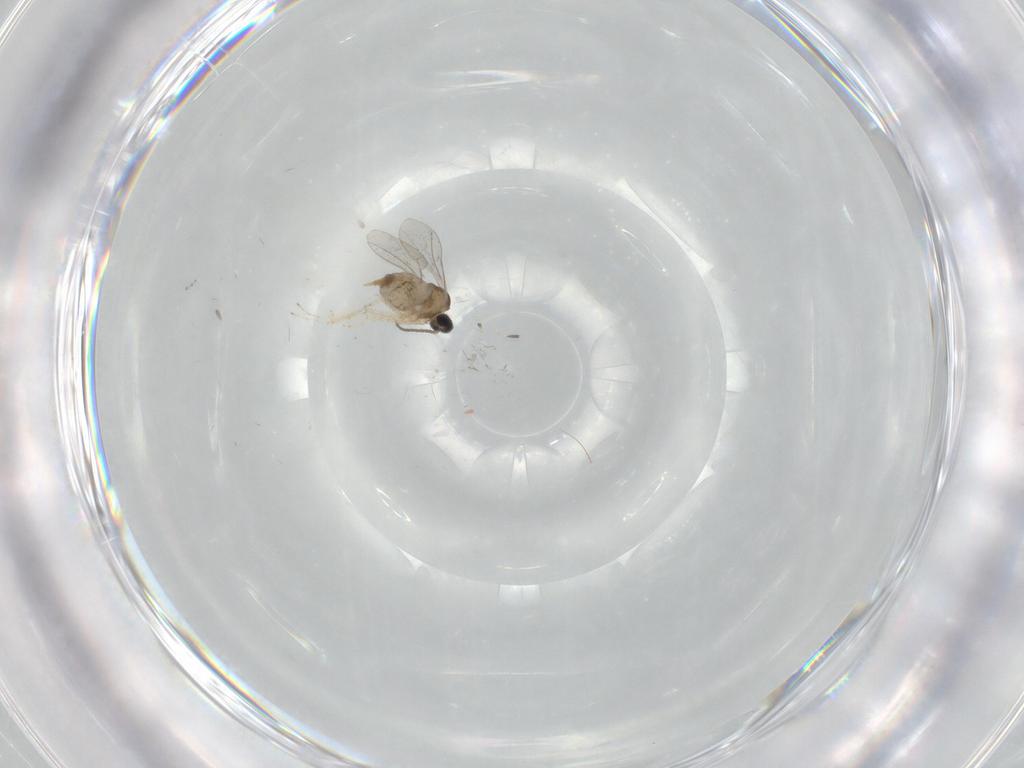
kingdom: Animalia
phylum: Arthropoda
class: Insecta
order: Diptera
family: Cecidomyiidae
